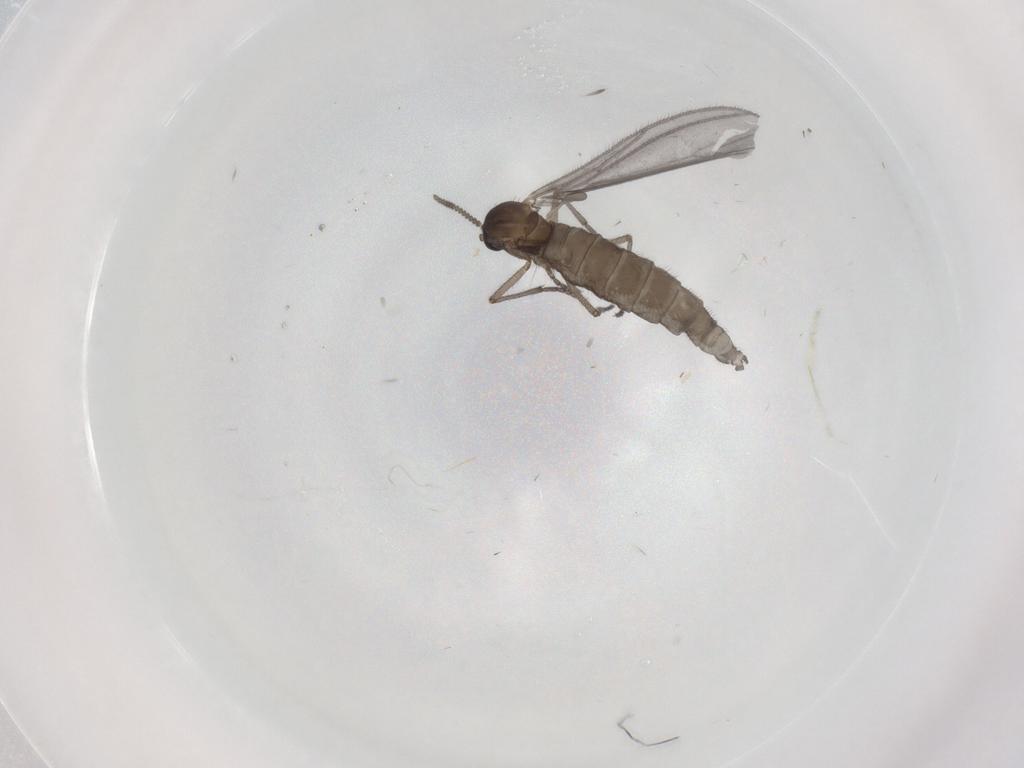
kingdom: Animalia
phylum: Arthropoda
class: Insecta
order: Diptera
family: Sciaridae
